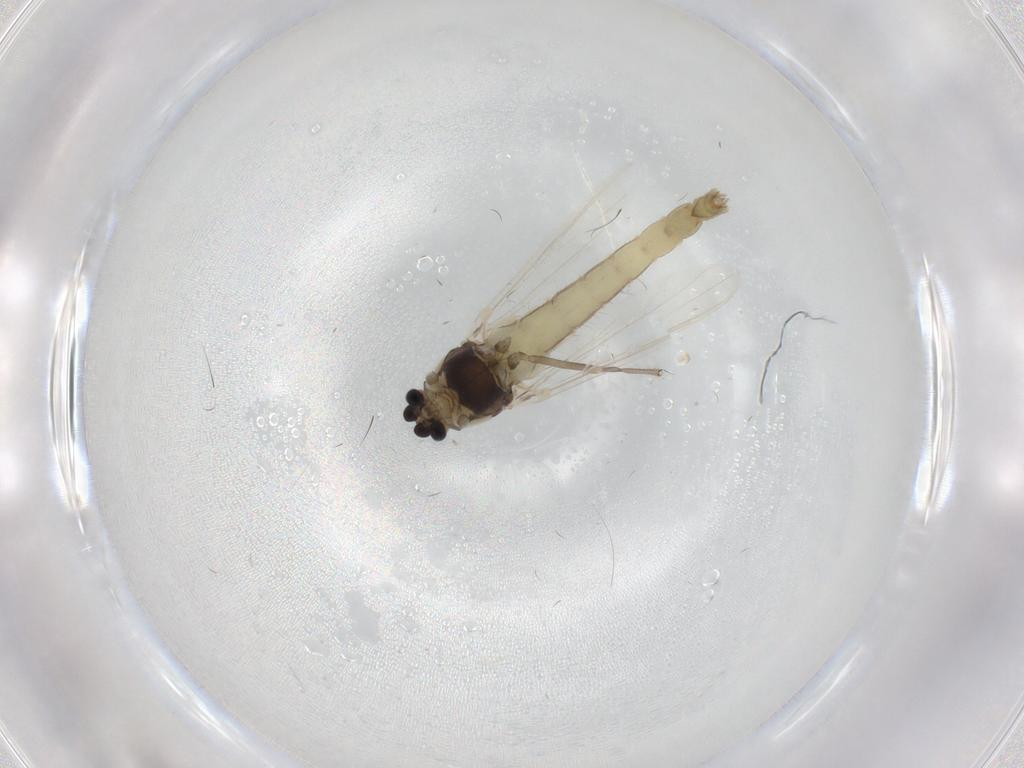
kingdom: Animalia
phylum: Arthropoda
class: Insecta
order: Diptera
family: Chironomidae
